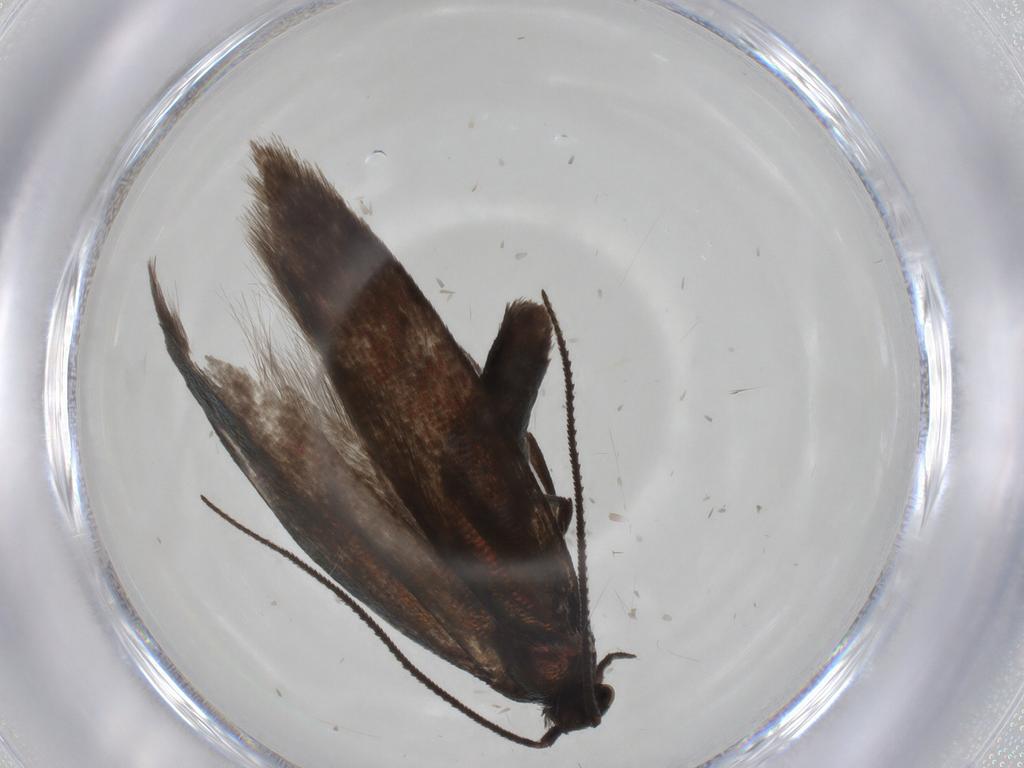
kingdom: Animalia
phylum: Arthropoda
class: Insecta
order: Lepidoptera
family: Argyresthiidae
